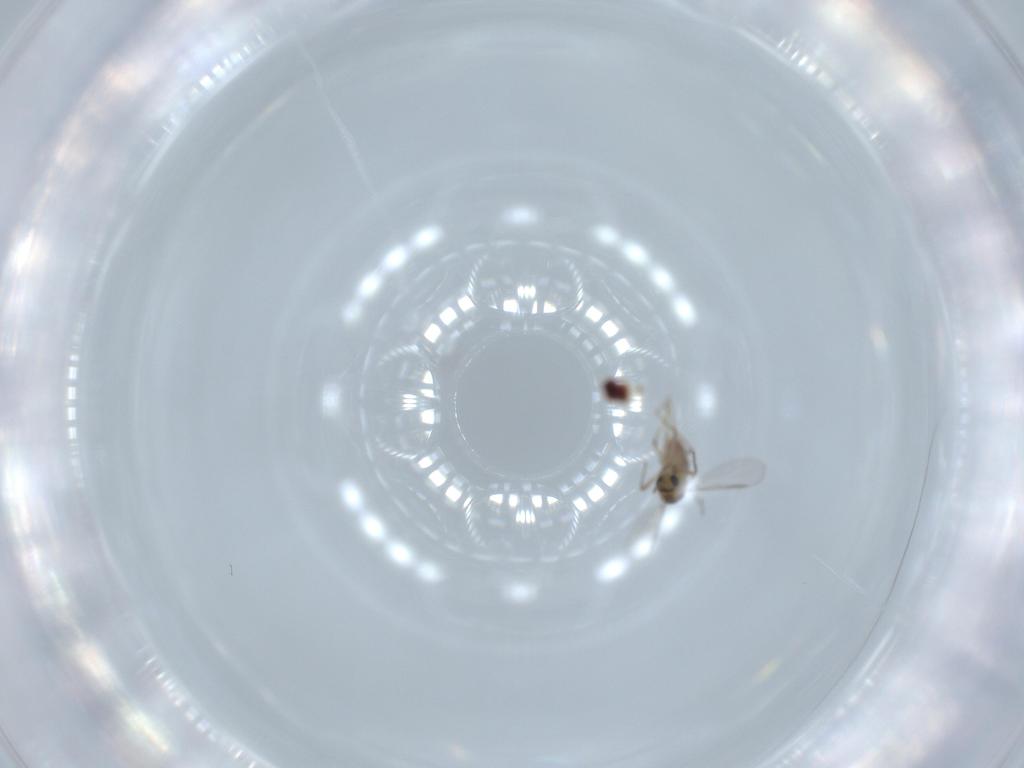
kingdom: Animalia
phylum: Arthropoda
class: Insecta
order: Diptera
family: Chironomidae
